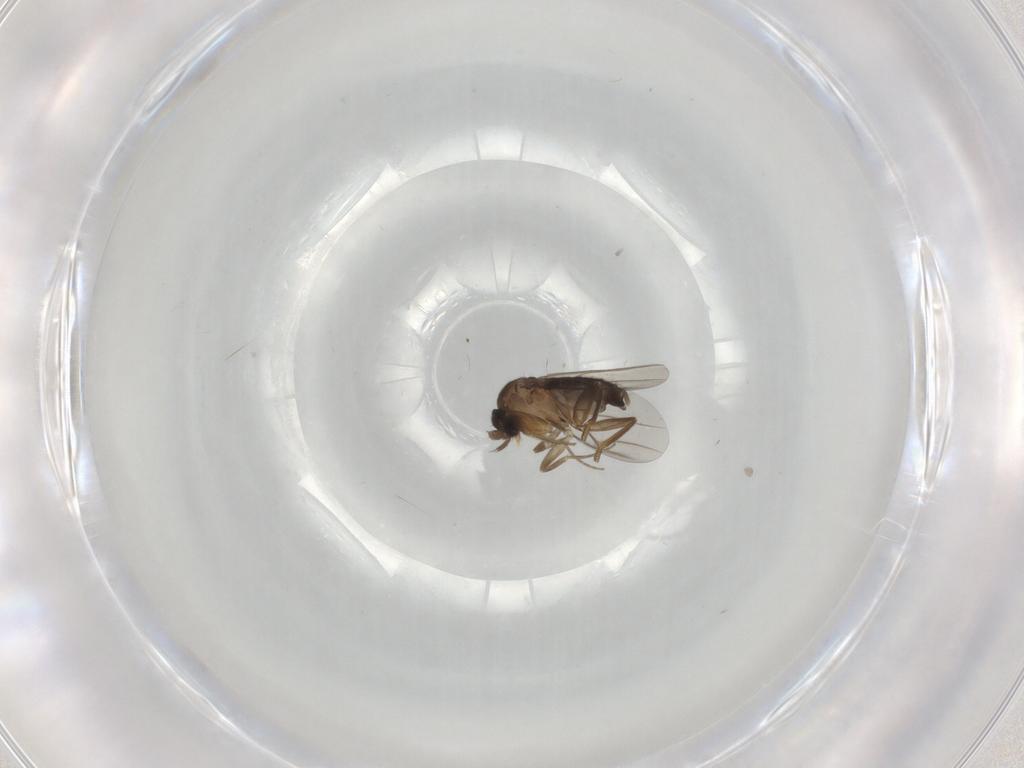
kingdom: Animalia
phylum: Arthropoda
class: Insecta
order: Diptera
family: Phoridae
